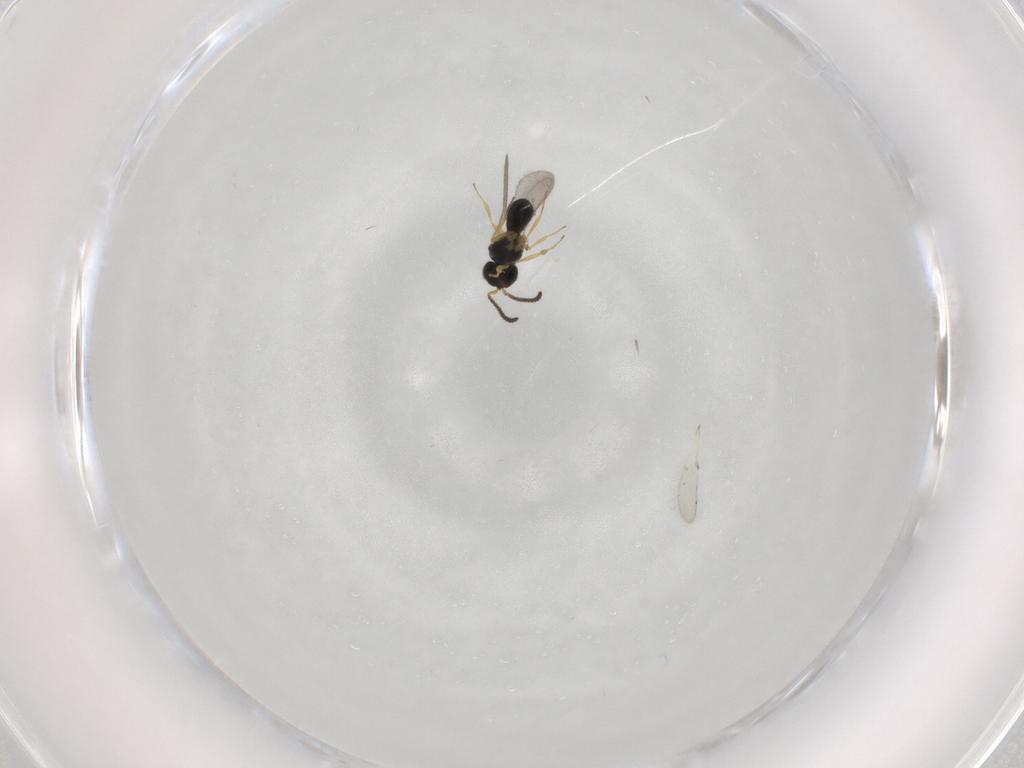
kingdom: Animalia
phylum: Arthropoda
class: Insecta
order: Hymenoptera
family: Scelionidae
